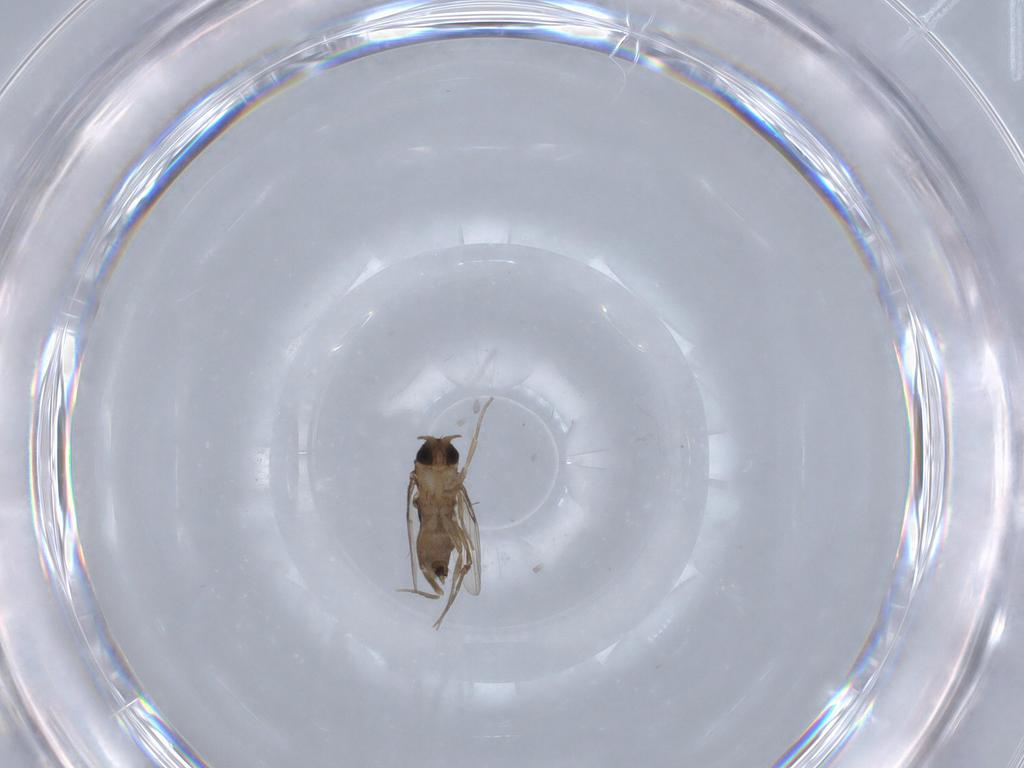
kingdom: Animalia
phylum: Arthropoda
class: Insecta
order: Diptera
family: Phoridae
